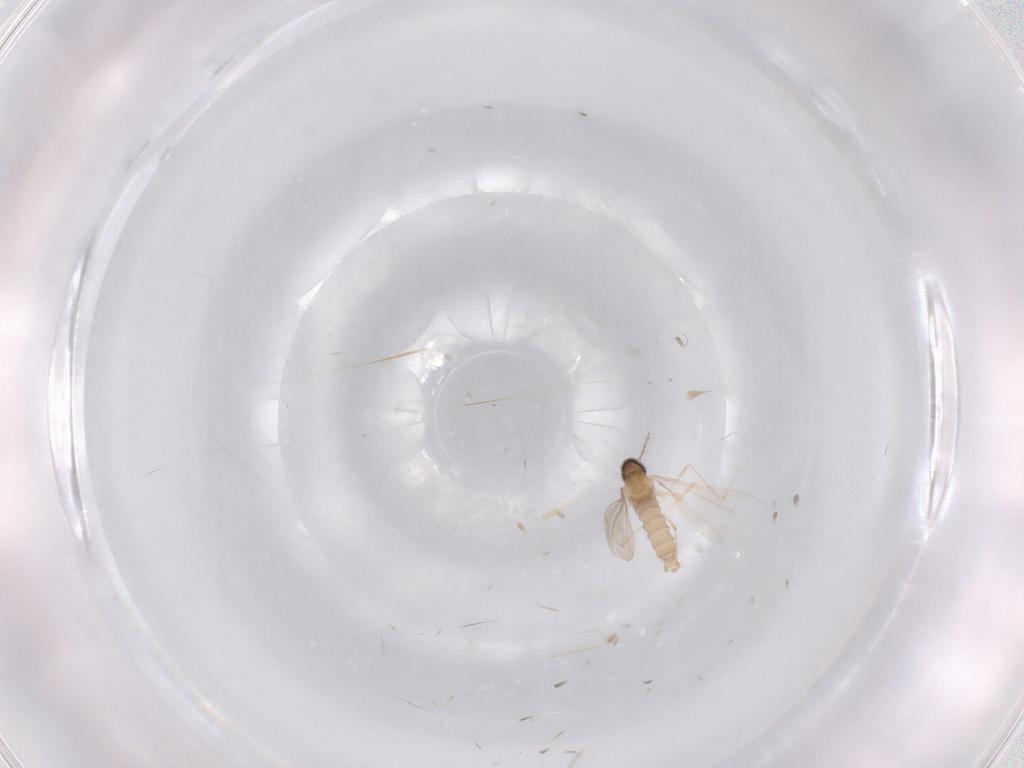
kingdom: Animalia
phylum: Arthropoda
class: Insecta
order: Diptera
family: Cecidomyiidae
